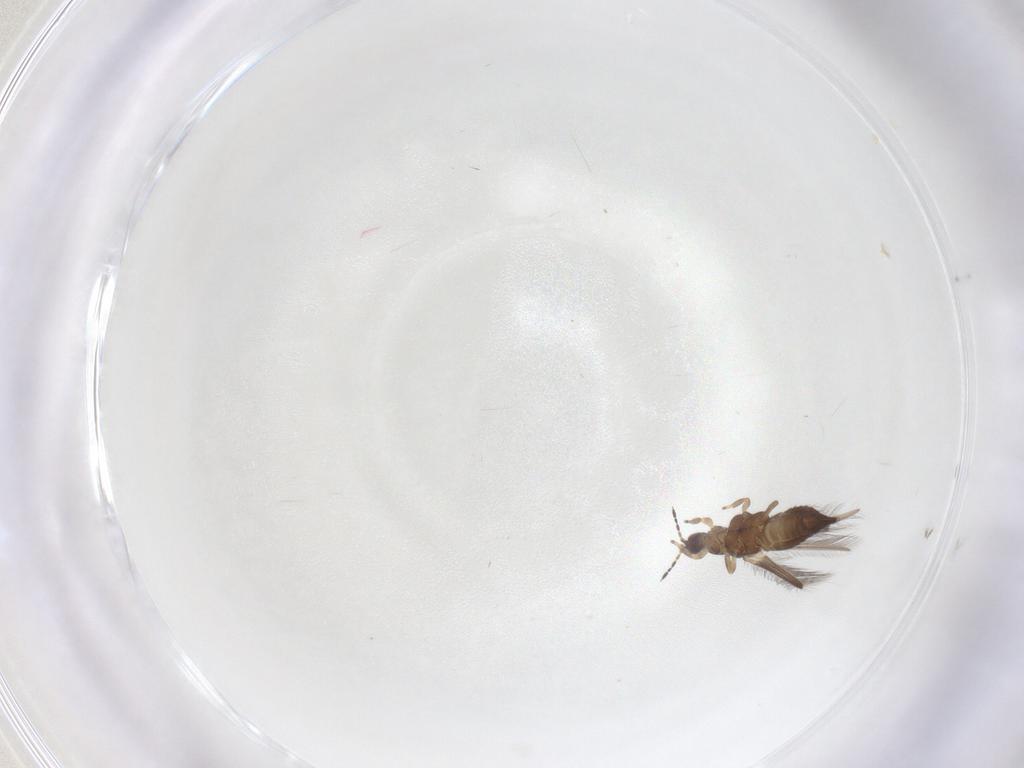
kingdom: Animalia
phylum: Arthropoda
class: Insecta
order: Thysanoptera
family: Thripidae
